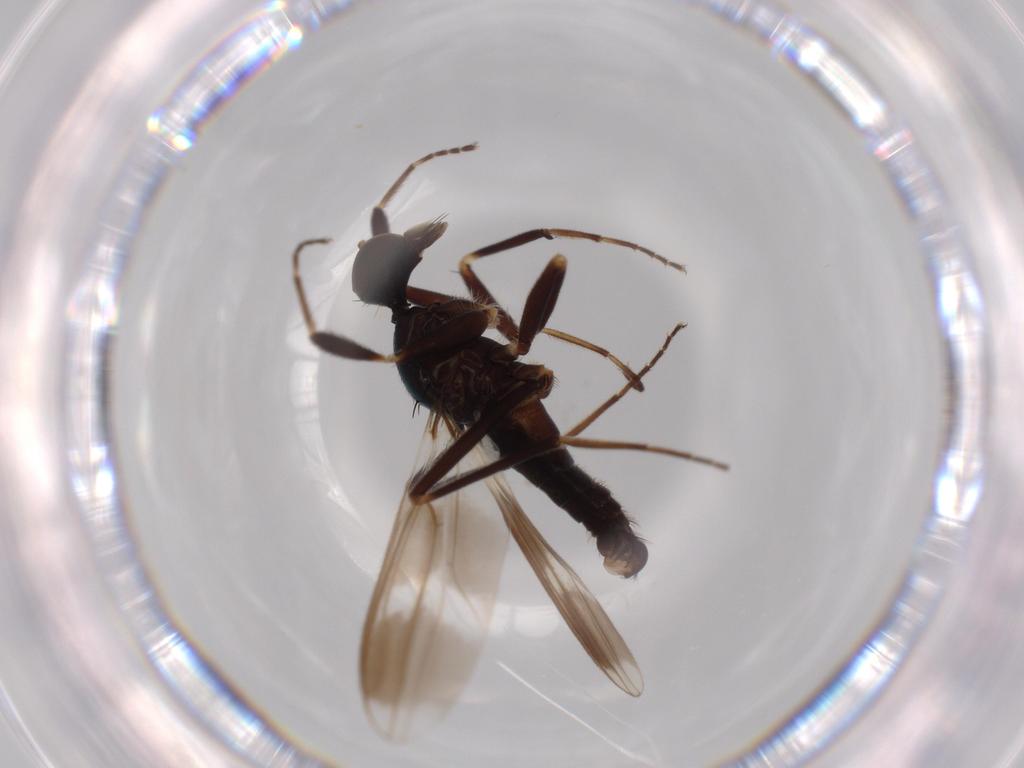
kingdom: Animalia
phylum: Arthropoda
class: Insecta
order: Diptera
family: Hybotidae
